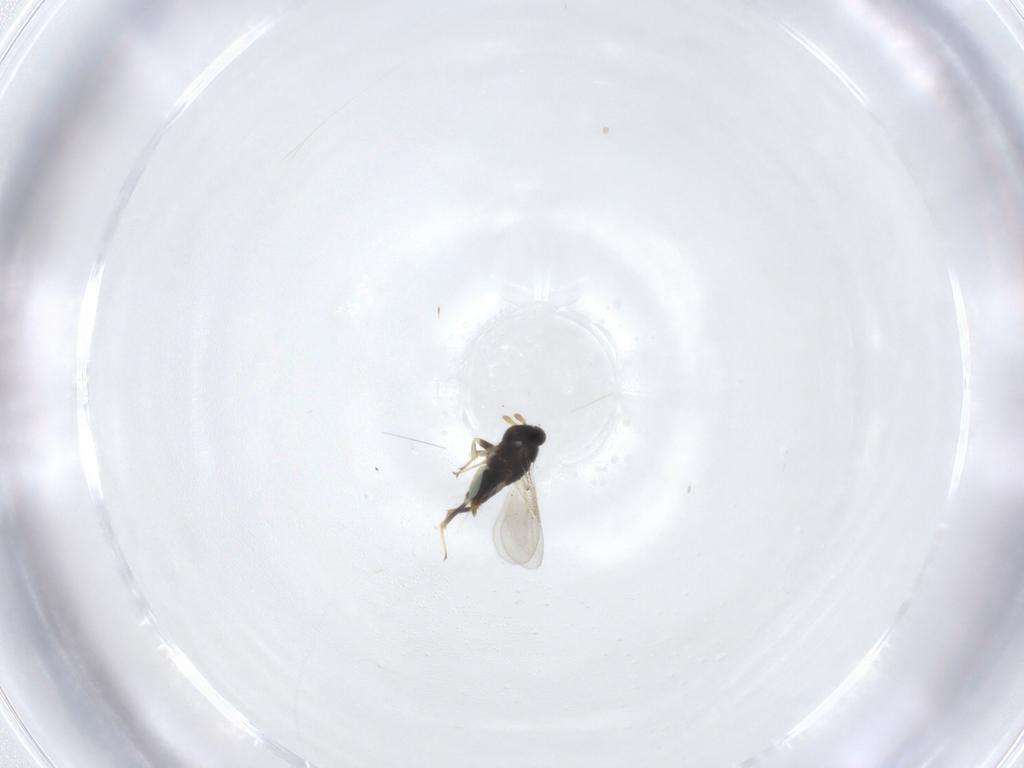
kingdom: Animalia
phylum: Arthropoda
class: Insecta
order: Hymenoptera
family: Aphelinidae
